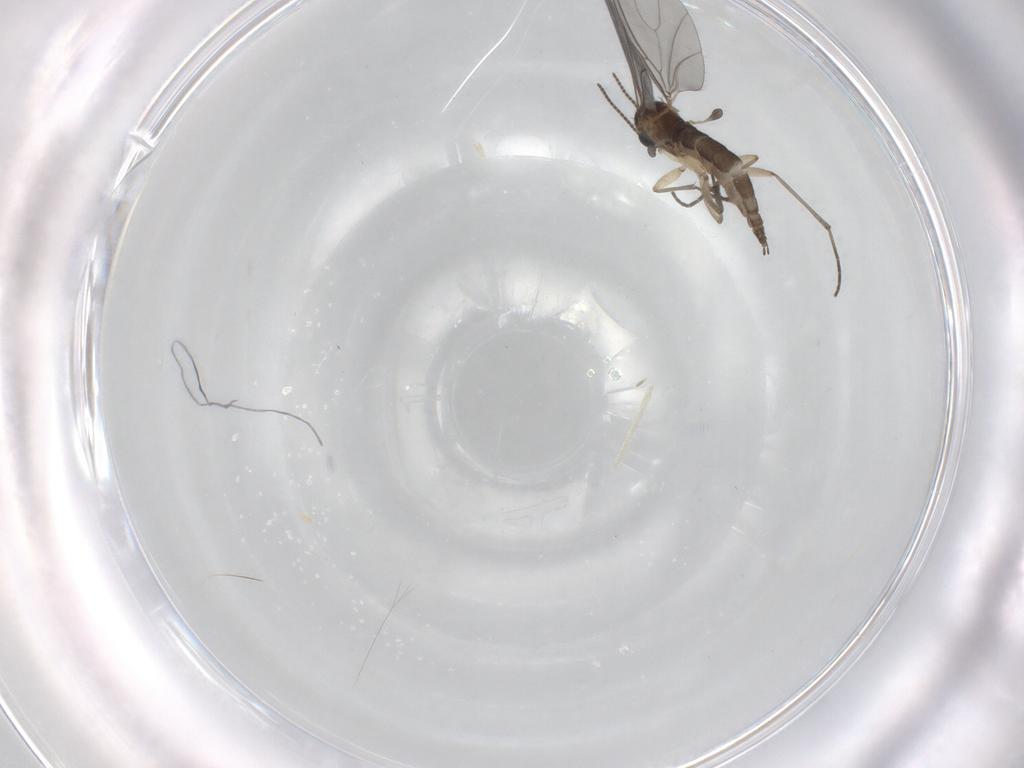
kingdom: Animalia
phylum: Arthropoda
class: Insecta
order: Diptera
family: Sciaridae
